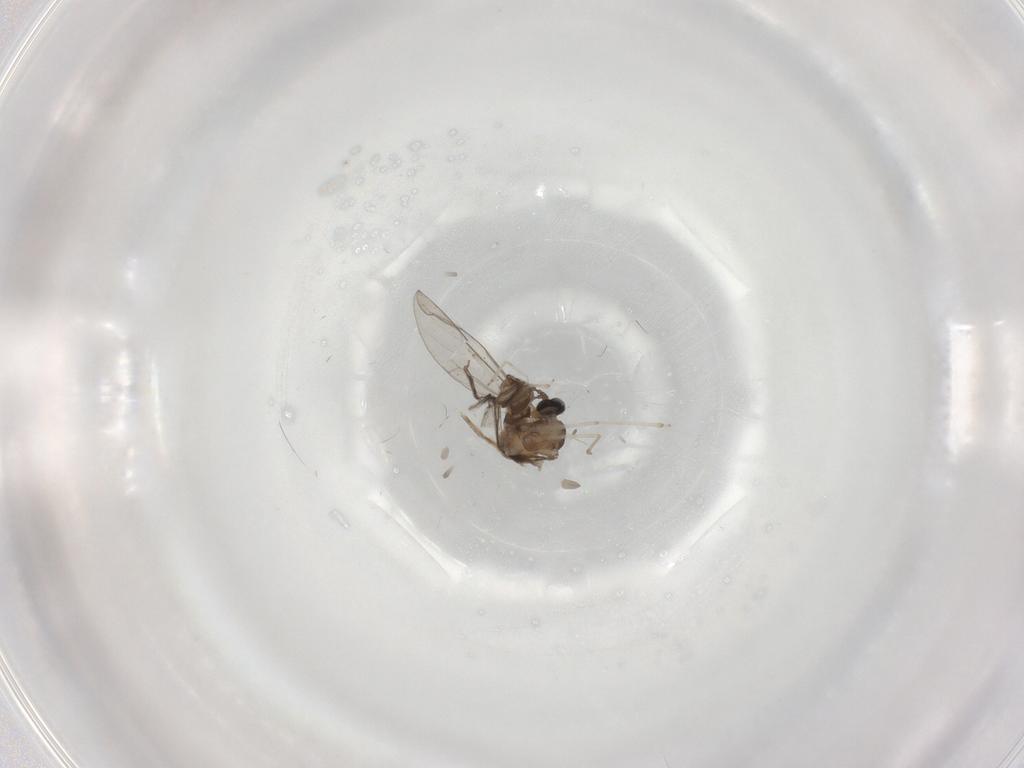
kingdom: Animalia
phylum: Arthropoda
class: Insecta
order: Diptera
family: Cecidomyiidae
